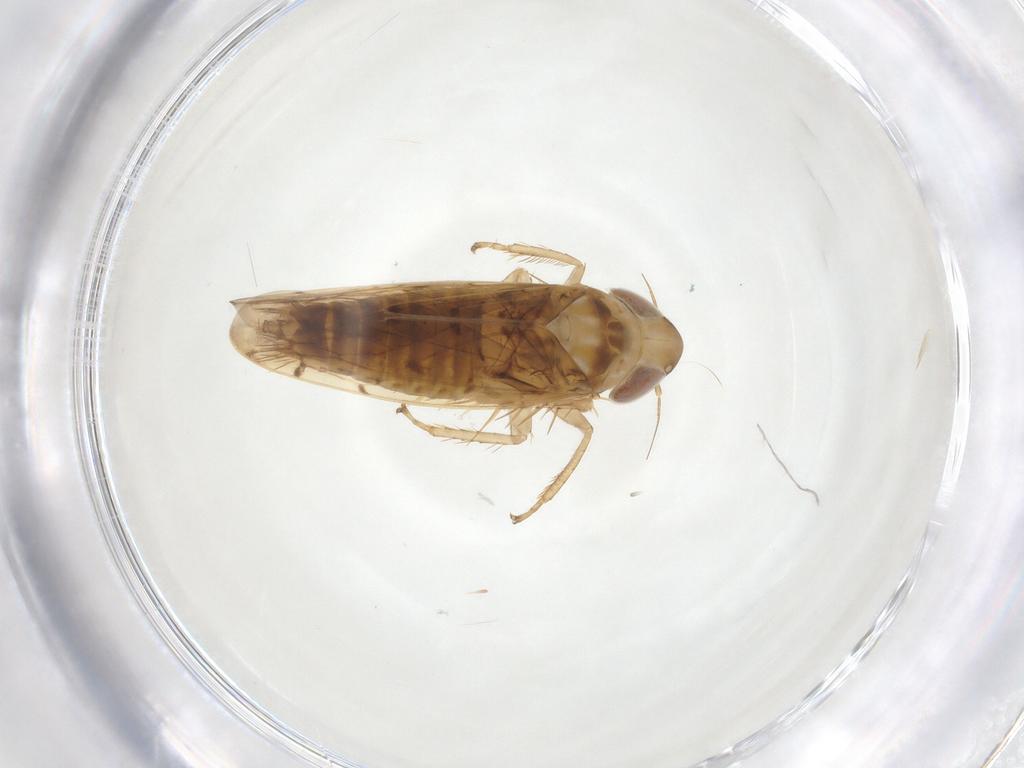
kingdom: Animalia
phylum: Arthropoda
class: Insecta
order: Hemiptera
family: Cicadellidae
